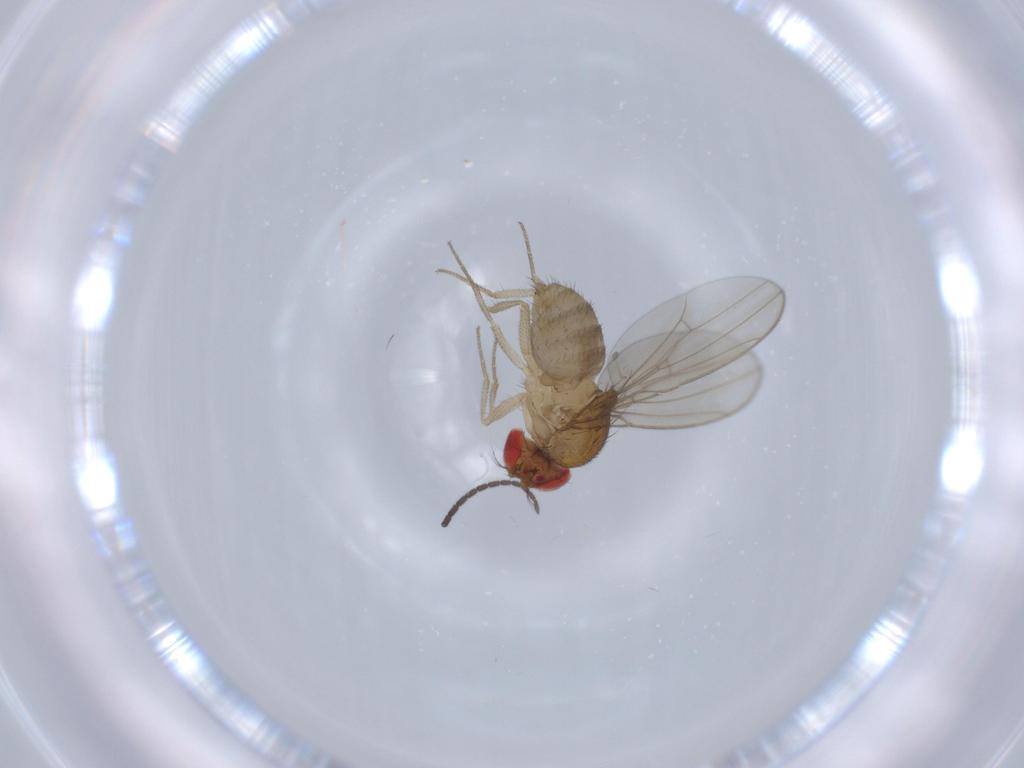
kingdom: Animalia
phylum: Arthropoda
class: Insecta
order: Diptera
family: Drosophilidae
